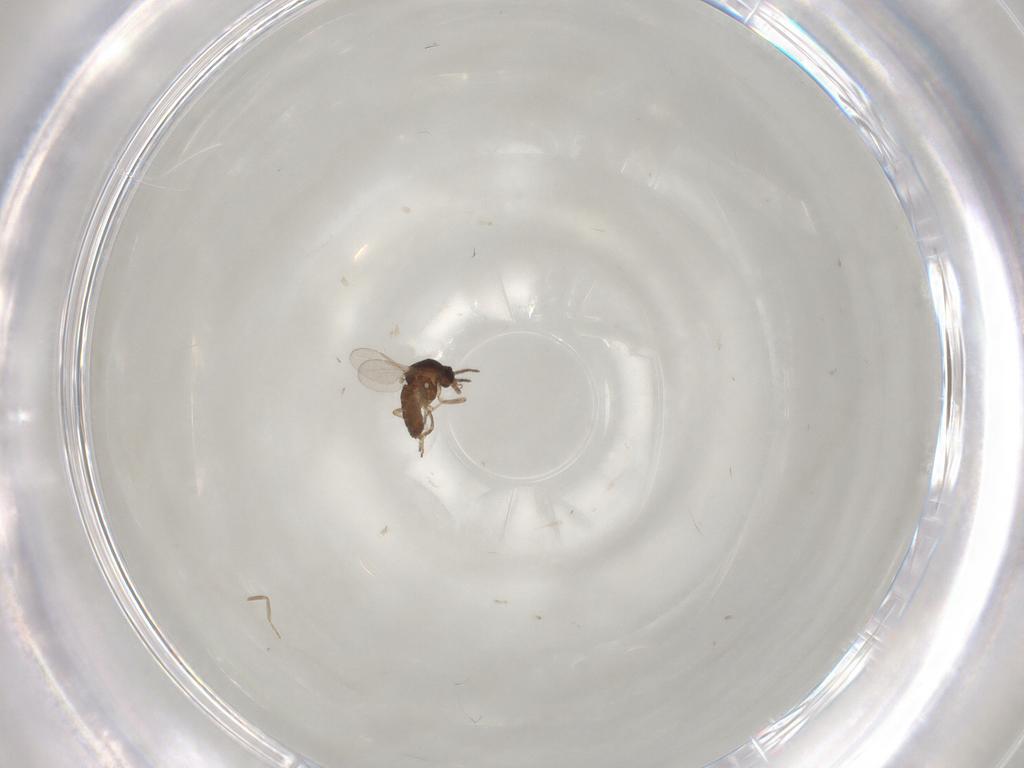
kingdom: Animalia
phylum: Arthropoda
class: Insecta
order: Diptera
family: Ceratopogonidae
